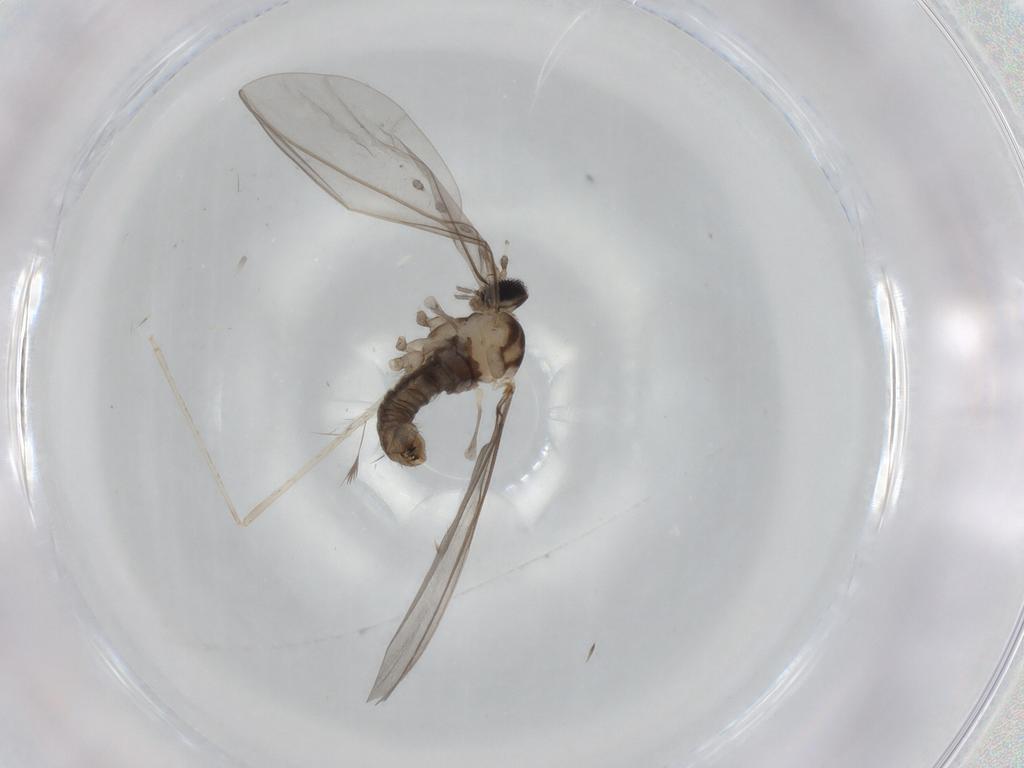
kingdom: Animalia
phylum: Arthropoda
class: Insecta
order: Diptera
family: Cecidomyiidae
